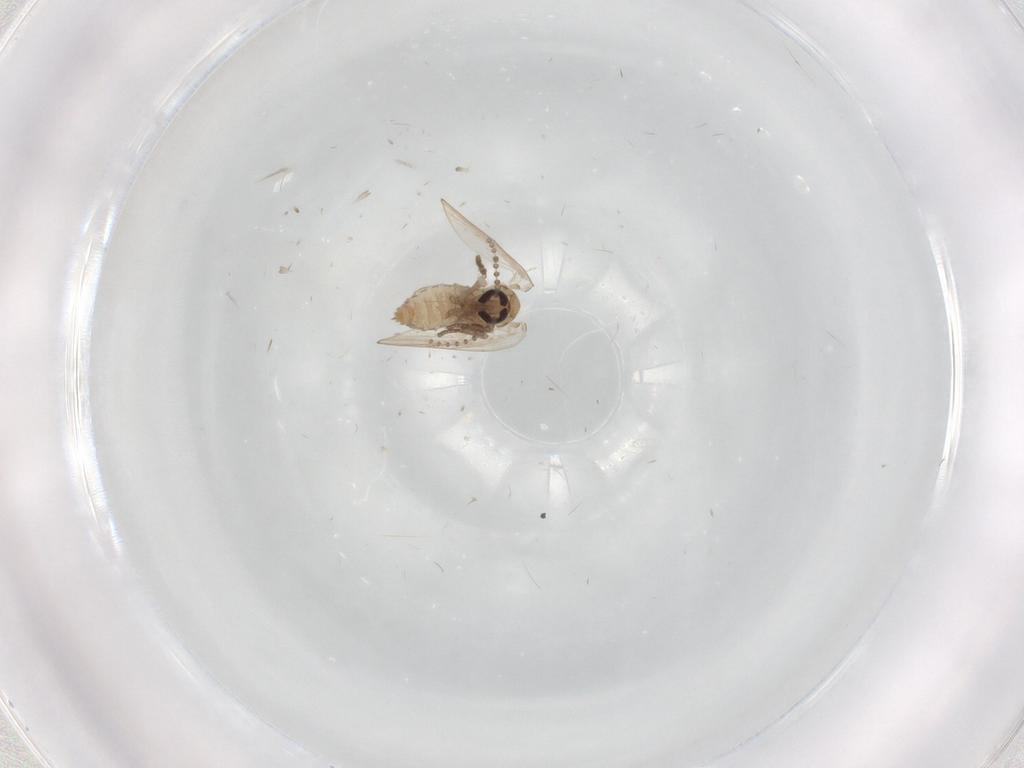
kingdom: Animalia
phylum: Arthropoda
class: Insecta
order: Diptera
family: Psychodidae
